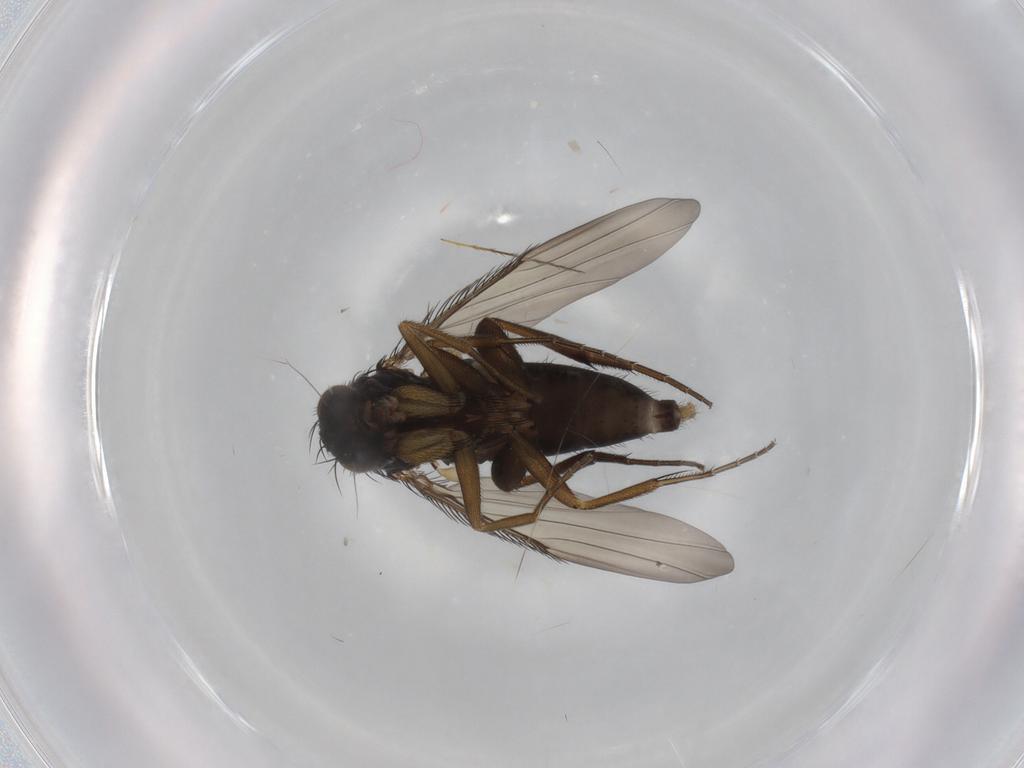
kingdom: Animalia
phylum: Arthropoda
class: Insecta
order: Diptera
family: Phoridae
